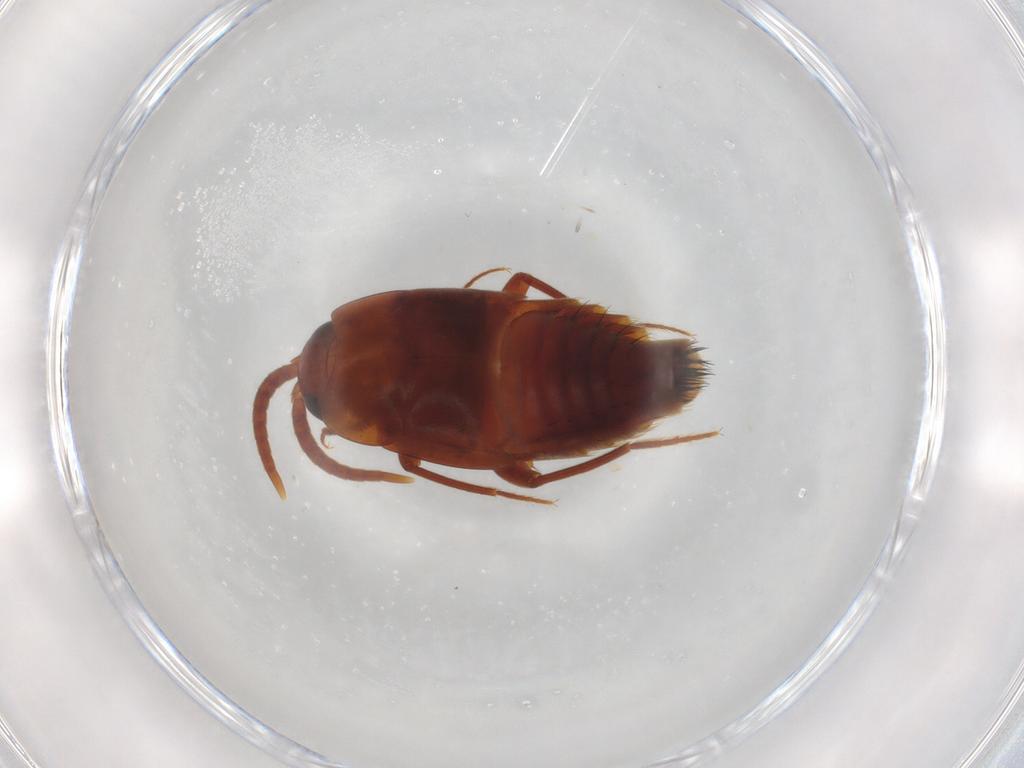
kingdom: Animalia
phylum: Arthropoda
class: Insecta
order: Coleoptera
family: Staphylinidae
